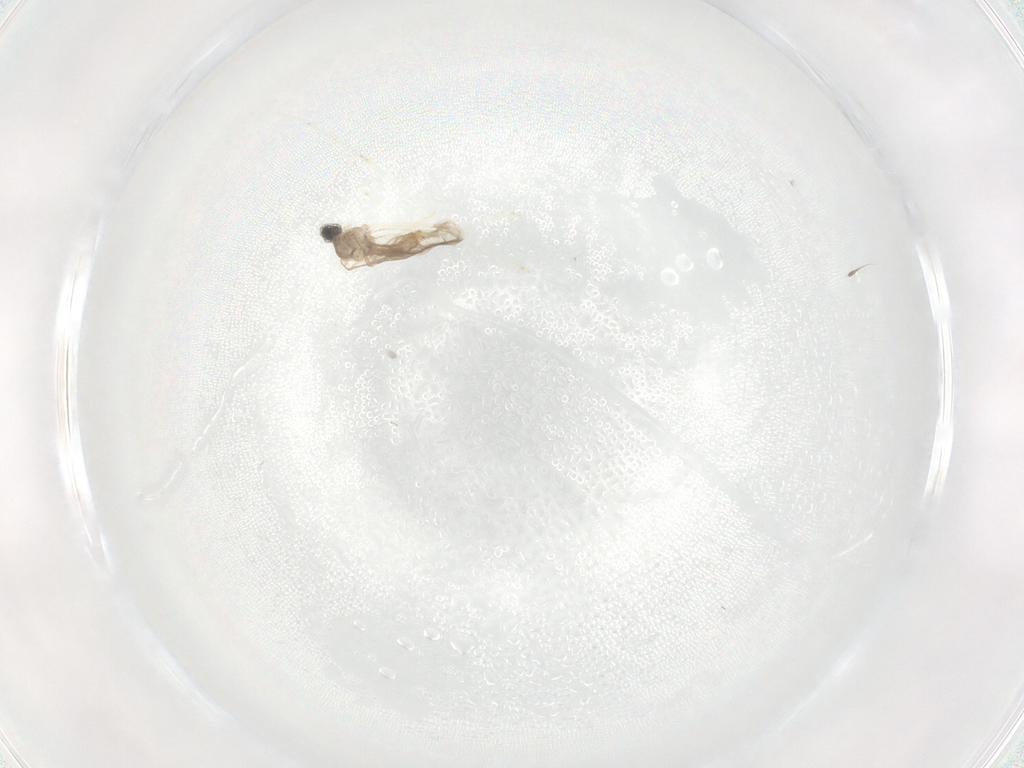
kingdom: Animalia
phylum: Arthropoda
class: Insecta
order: Diptera
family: Cecidomyiidae
